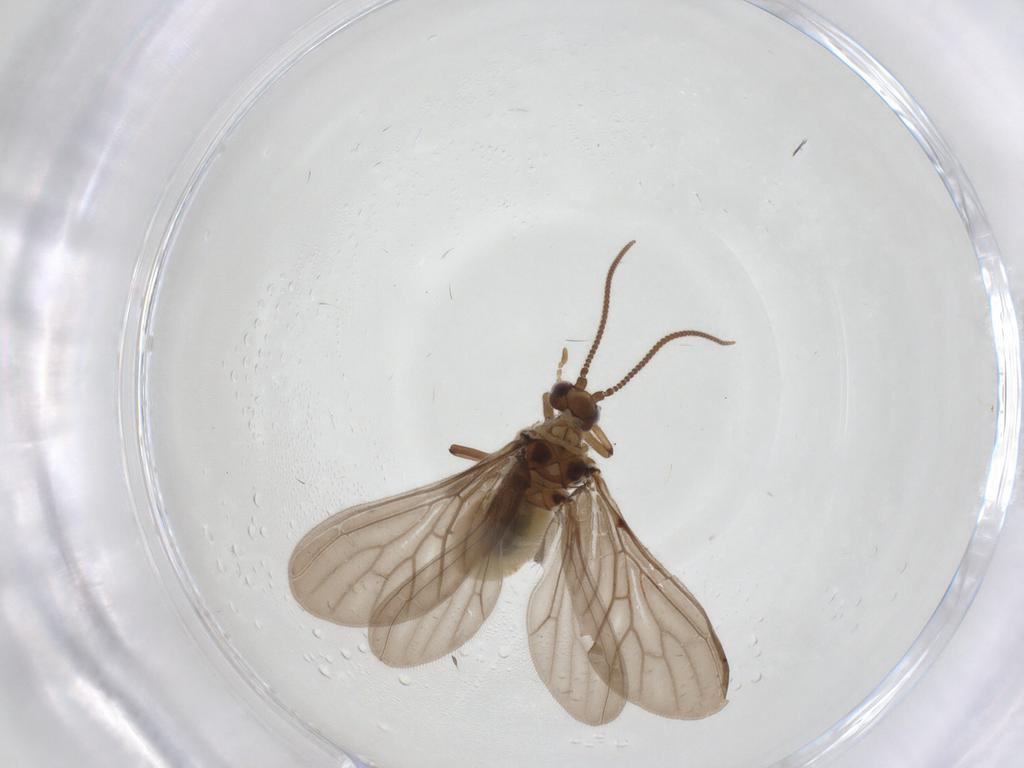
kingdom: Animalia
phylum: Arthropoda
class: Insecta
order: Neuroptera
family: Coniopterygidae
